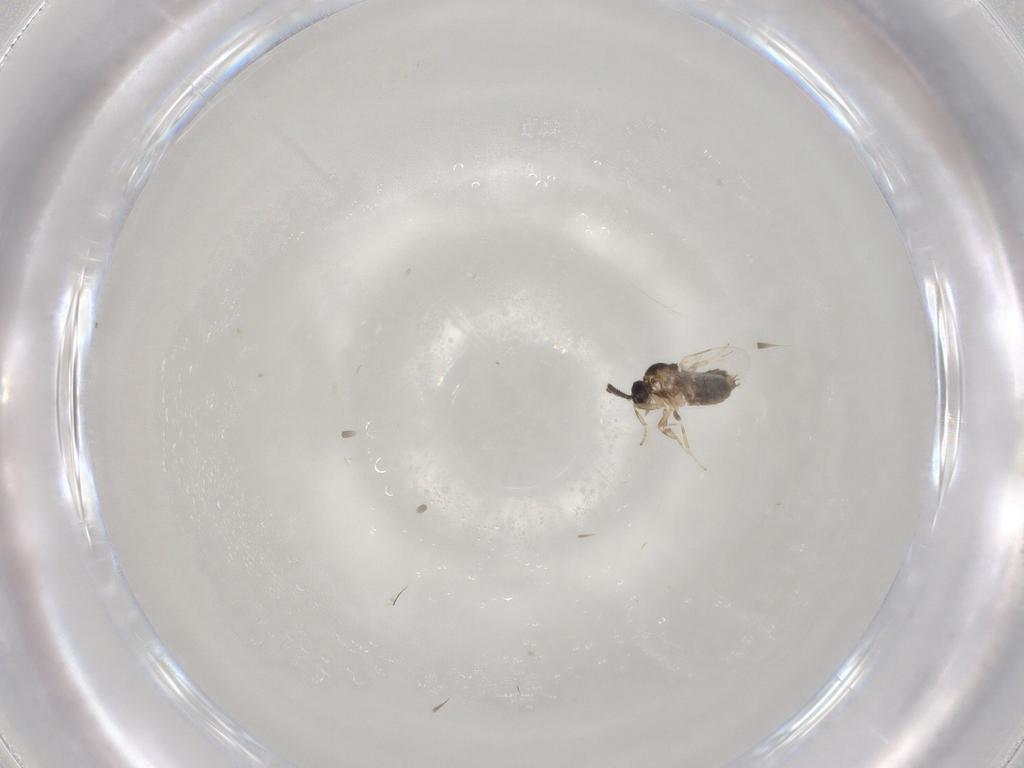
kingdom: Animalia
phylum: Arthropoda
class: Insecta
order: Diptera
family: Scatopsidae
